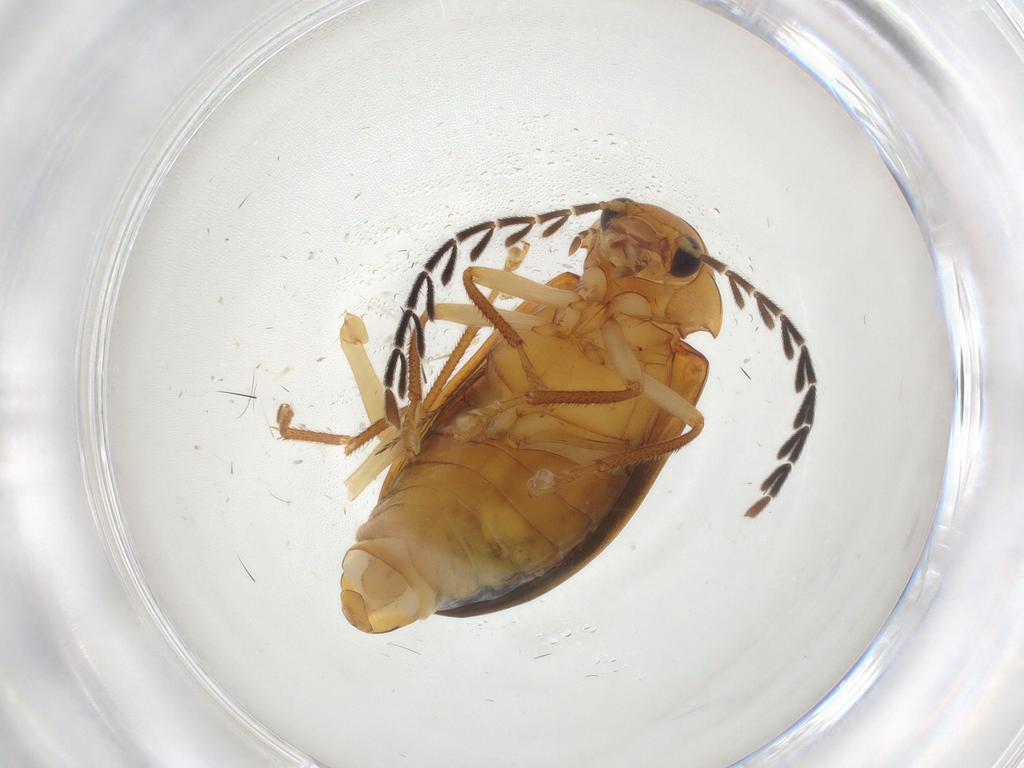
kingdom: Animalia
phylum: Arthropoda
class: Insecta
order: Coleoptera
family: Ptilodactylidae
